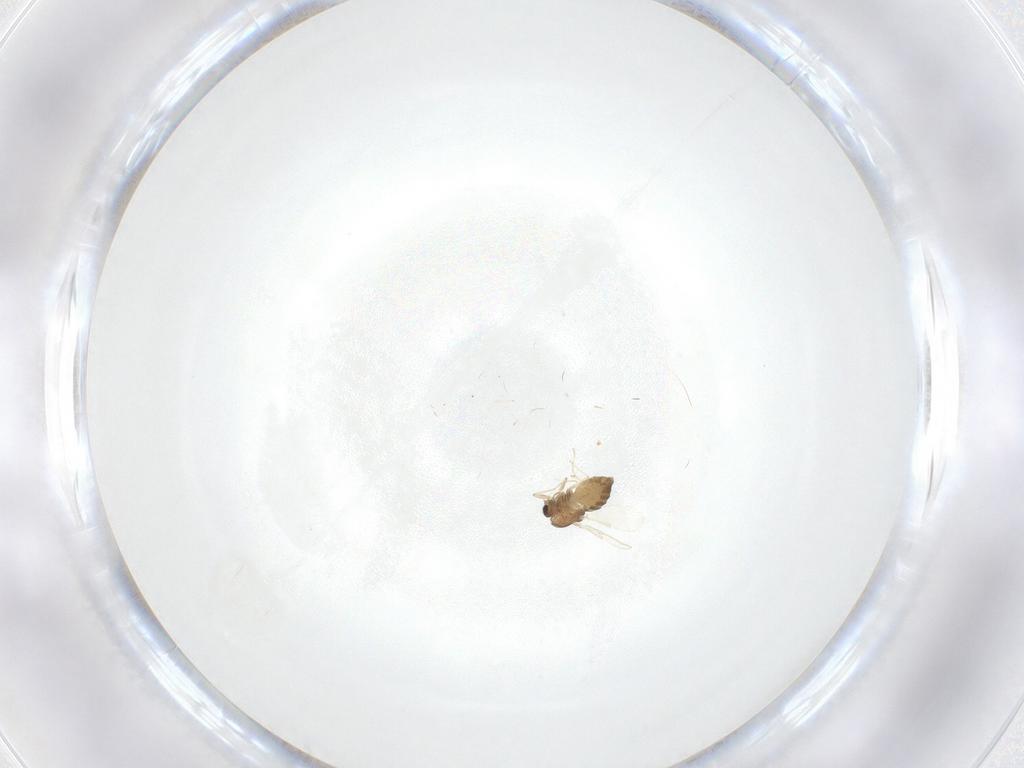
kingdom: Animalia
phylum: Arthropoda
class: Insecta
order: Diptera
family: Chironomidae
